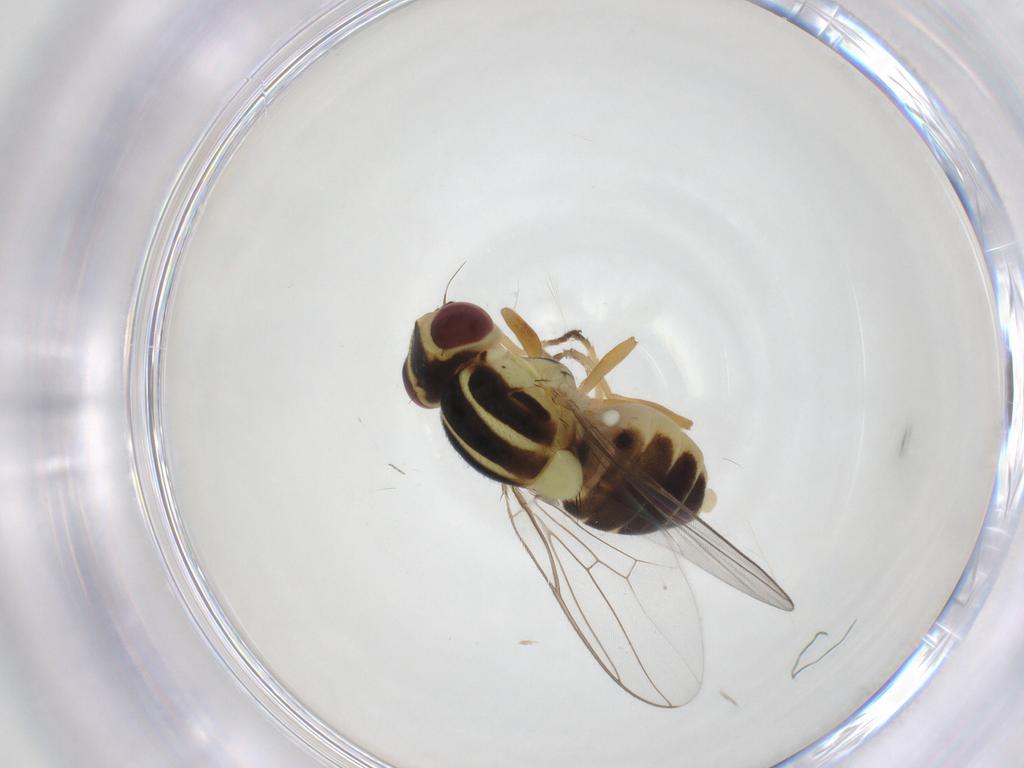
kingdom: Animalia
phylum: Arthropoda
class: Insecta
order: Diptera
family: Chloropidae
